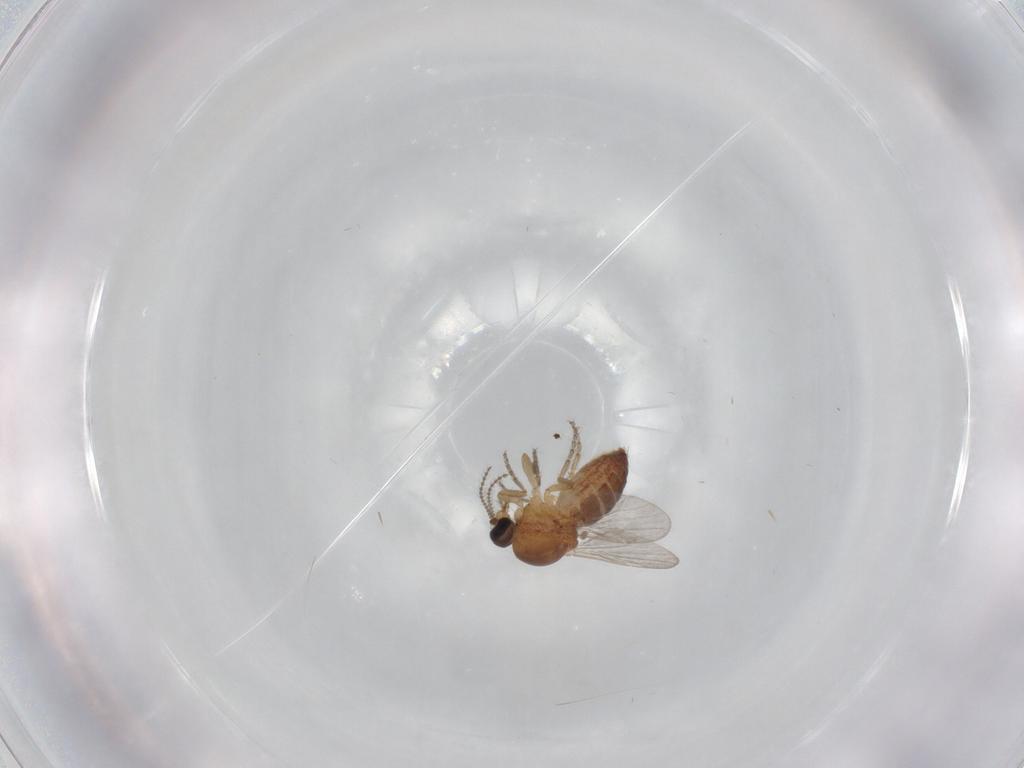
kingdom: Animalia
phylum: Arthropoda
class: Insecta
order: Diptera
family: Ceratopogonidae
